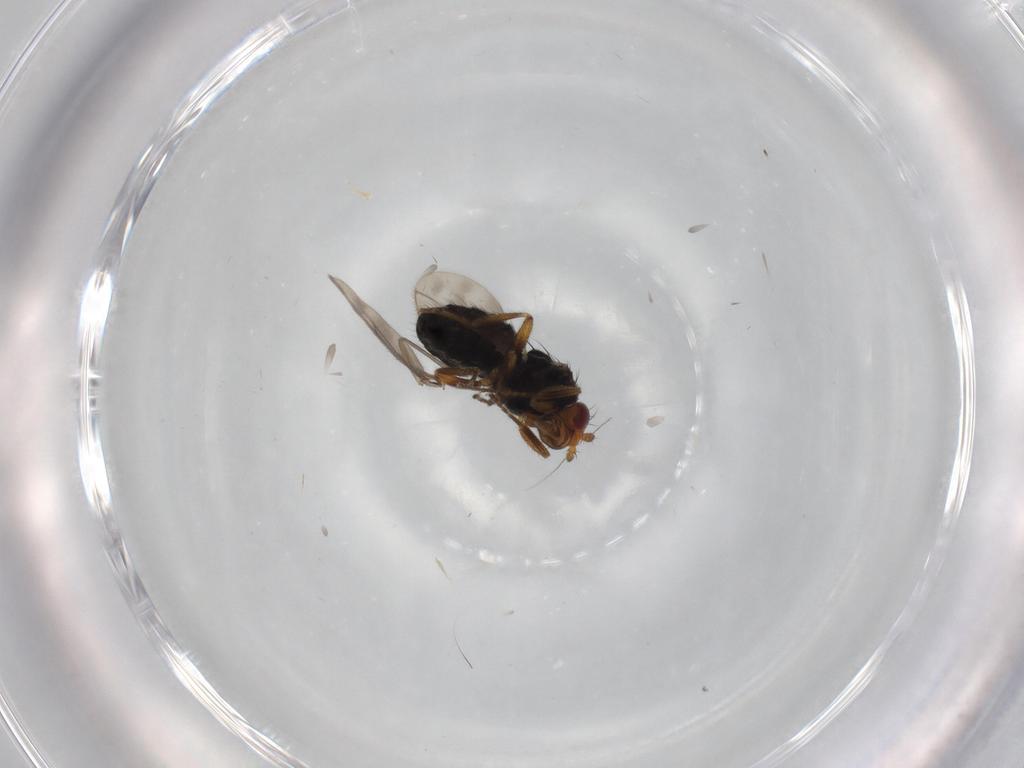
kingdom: Animalia
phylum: Arthropoda
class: Insecta
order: Diptera
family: Sphaeroceridae
